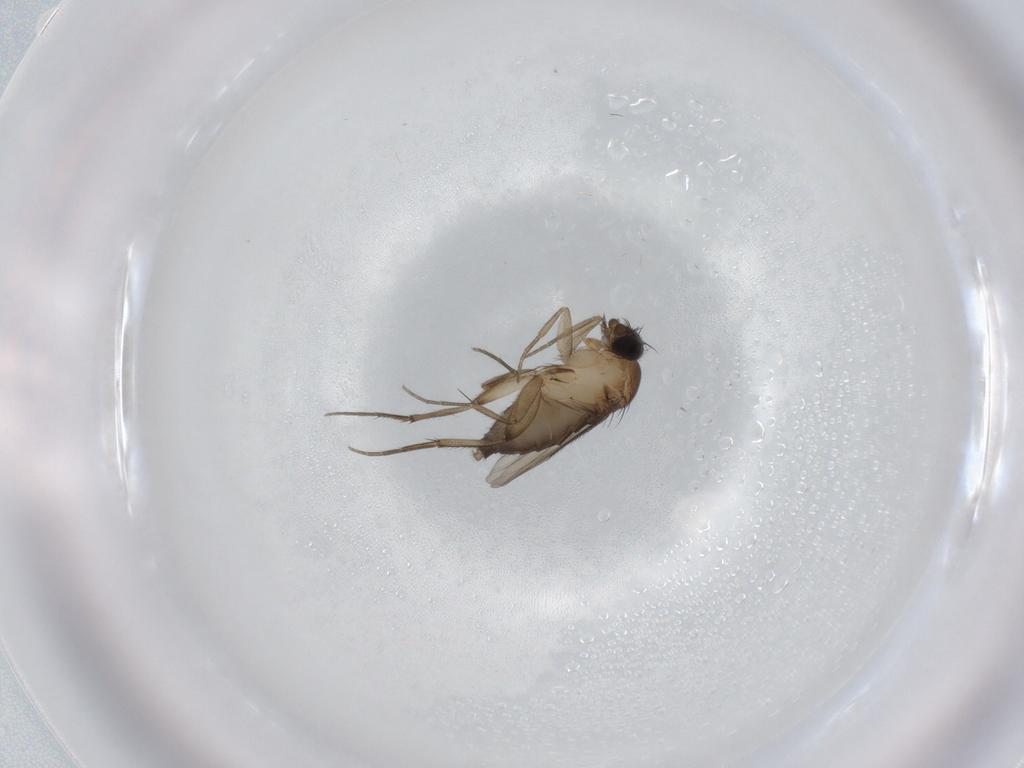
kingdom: Animalia
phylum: Arthropoda
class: Insecta
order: Diptera
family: Phoridae
